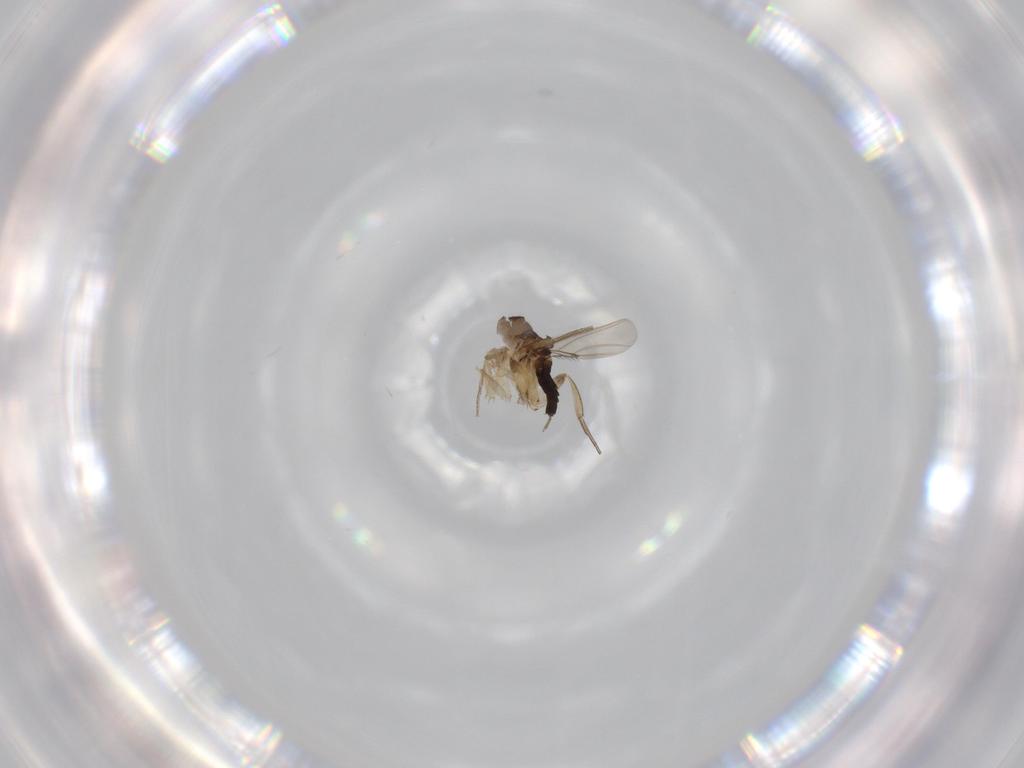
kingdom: Animalia
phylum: Arthropoda
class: Insecta
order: Diptera
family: Phoridae
